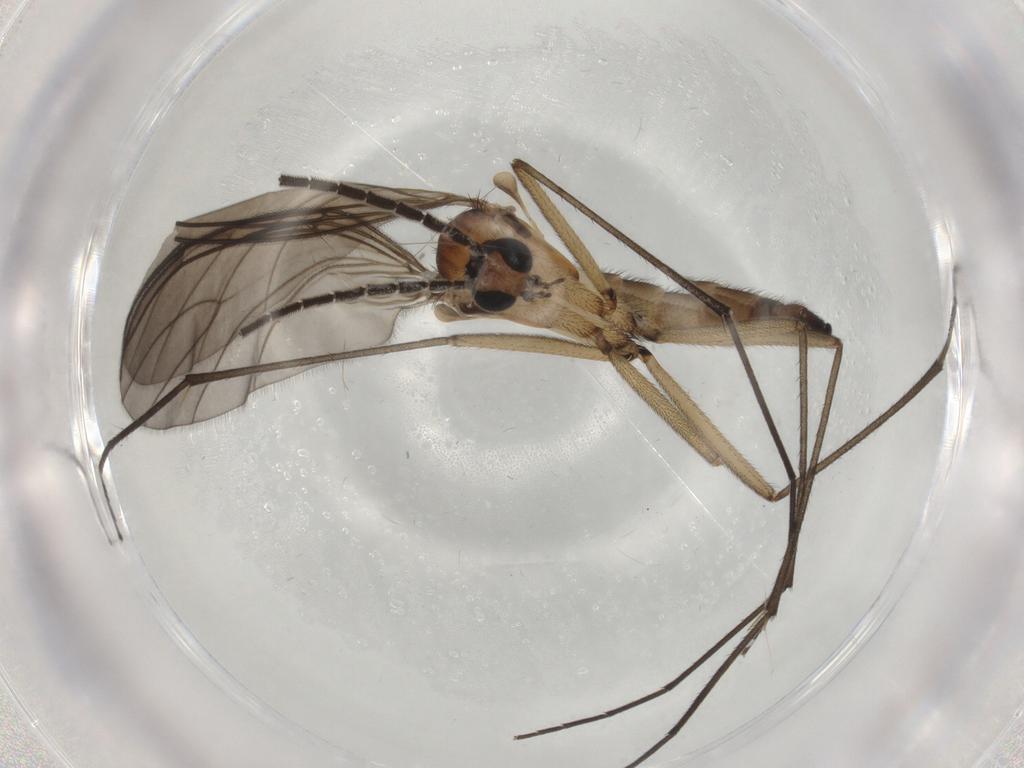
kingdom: Animalia
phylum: Arthropoda
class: Insecta
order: Diptera
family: Sciaridae
